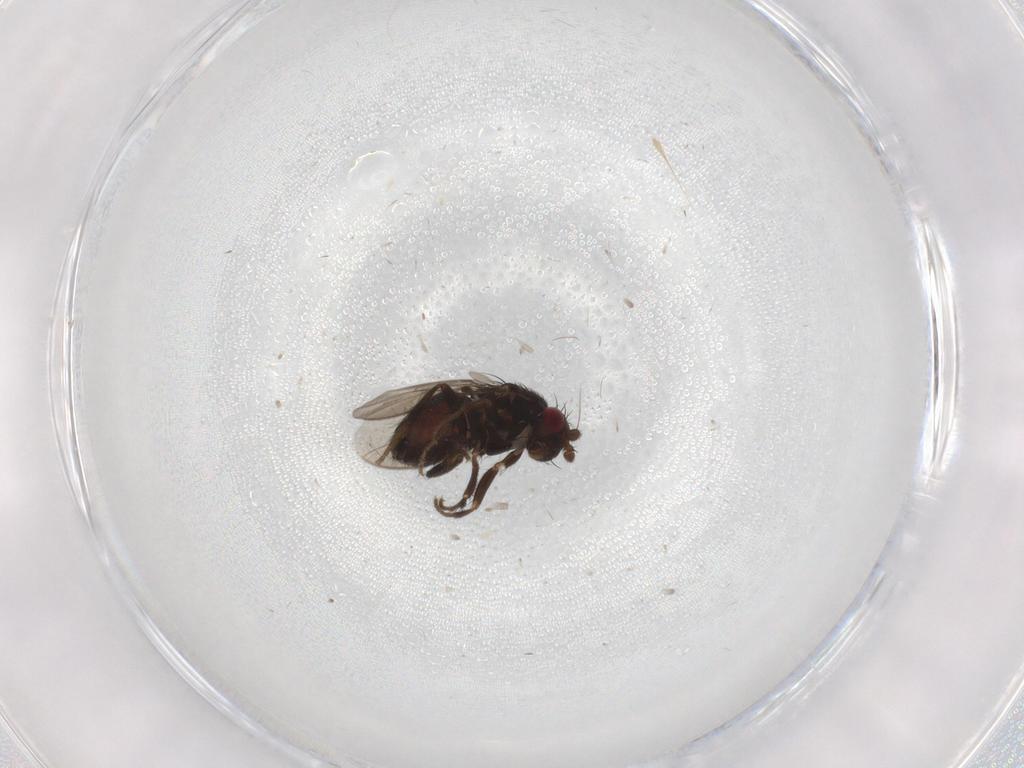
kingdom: Animalia
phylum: Arthropoda
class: Insecta
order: Diptera
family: Sphaeroceridae
